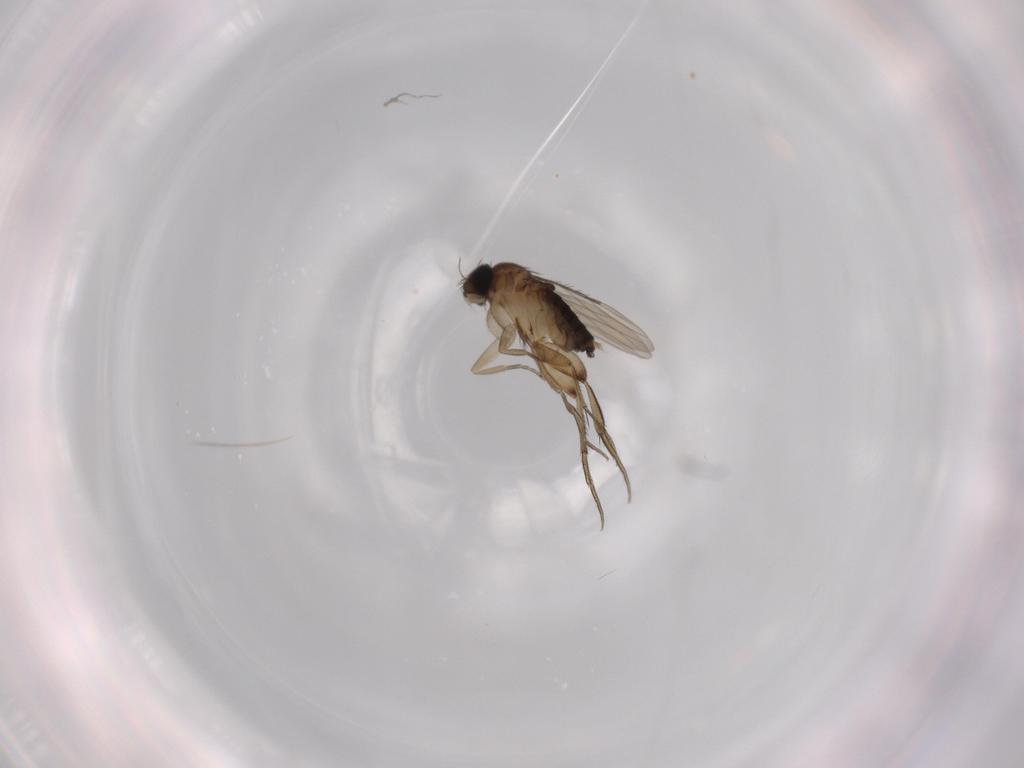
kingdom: Animalia
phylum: Arthropoda
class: Insecta
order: Diptera
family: Phoridae
